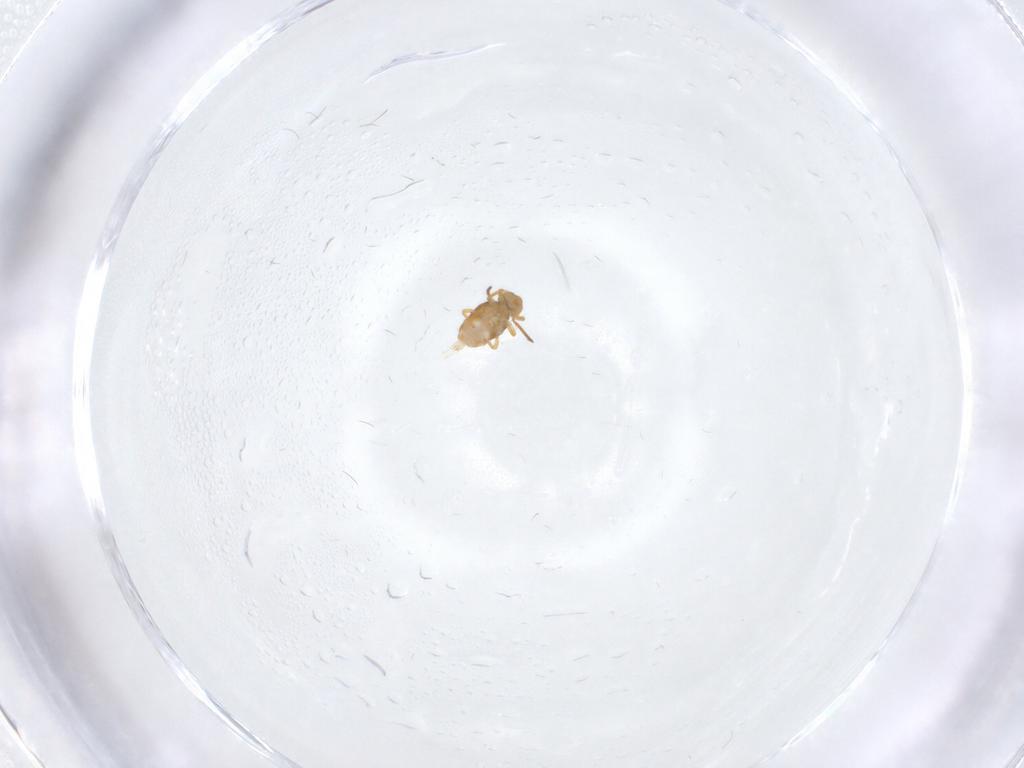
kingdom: Animalia
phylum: Arthropoda
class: Collembola
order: Symphypleona
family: Katiannidae
